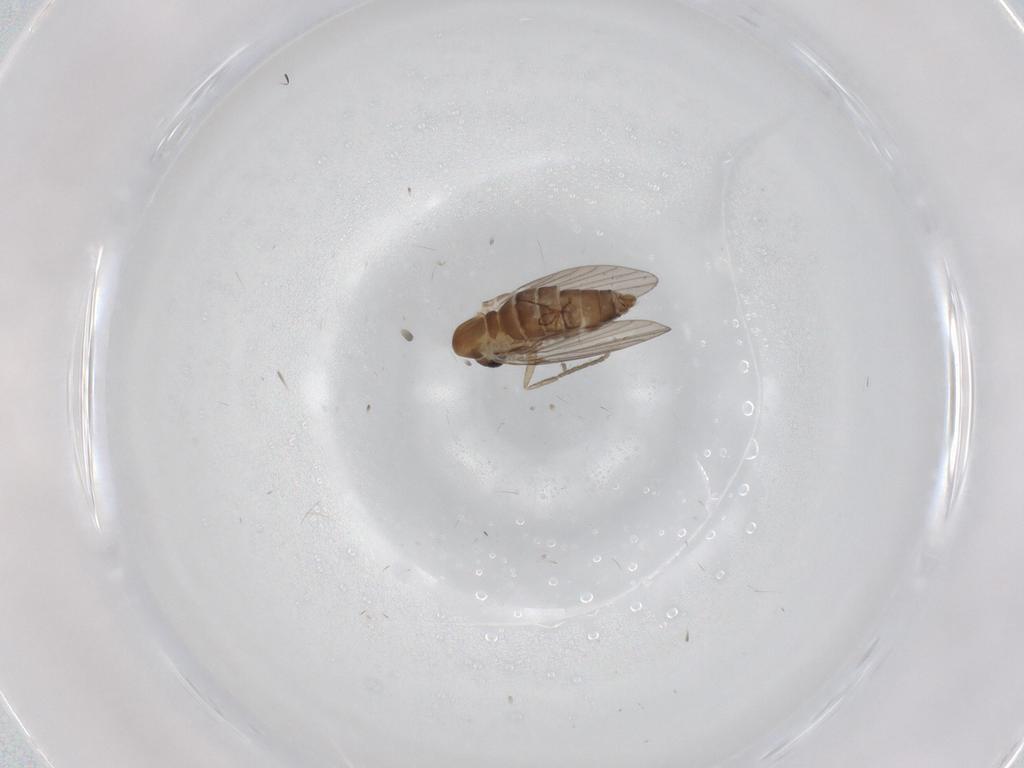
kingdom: Animalia
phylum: Arthropoda
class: Insecta
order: Diptera
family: Psychodidae
